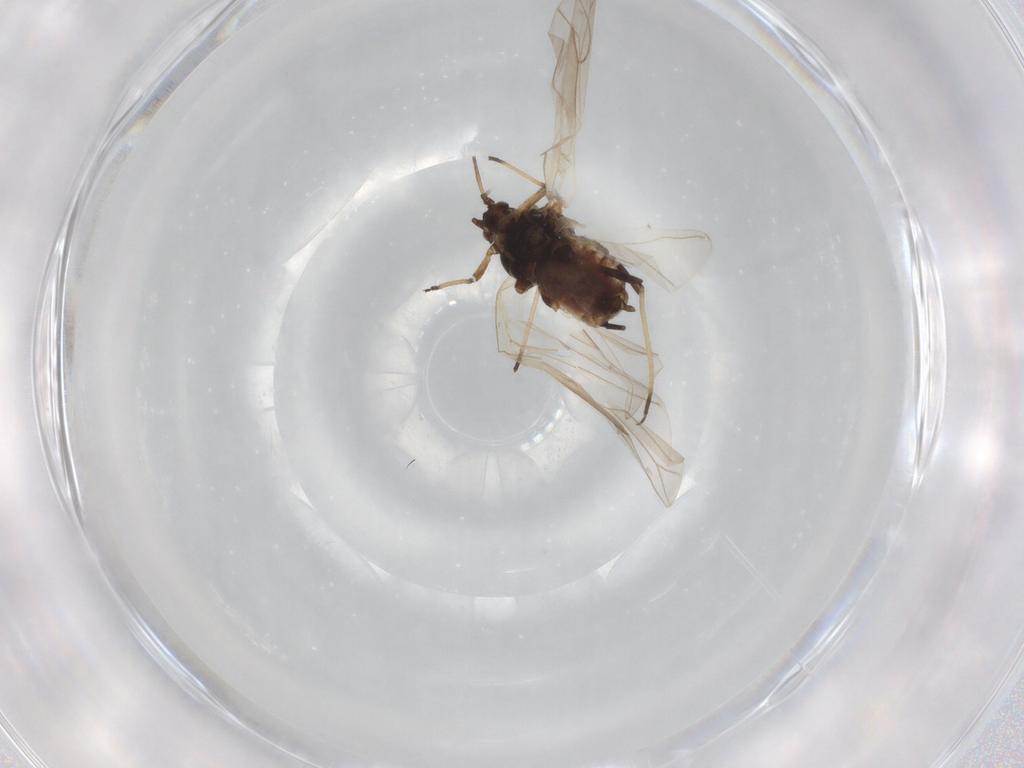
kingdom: Animalia
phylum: Arthropoda
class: Insecta
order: Hemiptera
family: Aphididae
